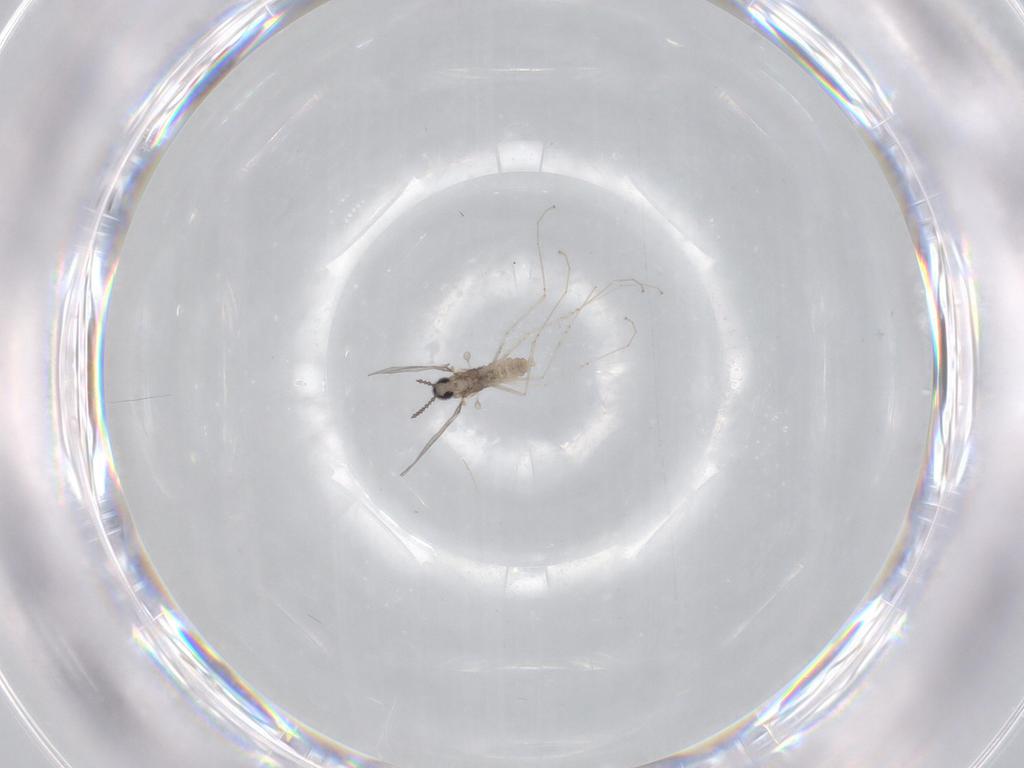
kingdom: Animalia
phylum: Arthropoda
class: Insecta
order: Diptera
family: Cecidomyiidae
